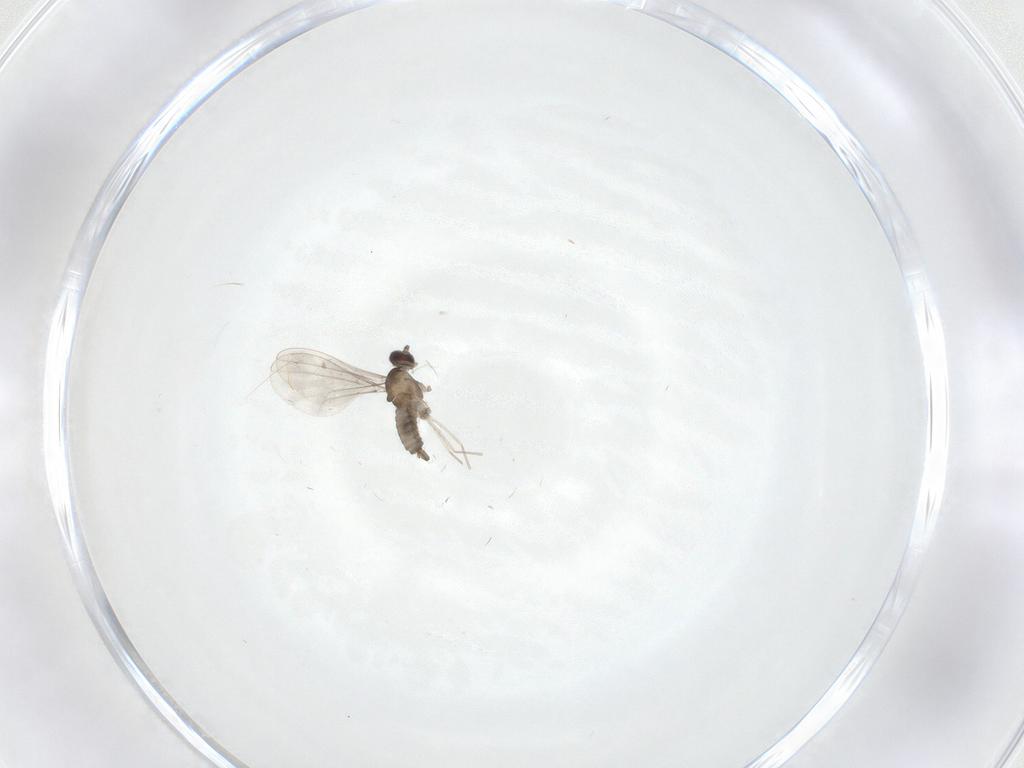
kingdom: Animalia
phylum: Arthropoda
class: Insecta
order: Diptera
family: Cecidomyiidae
